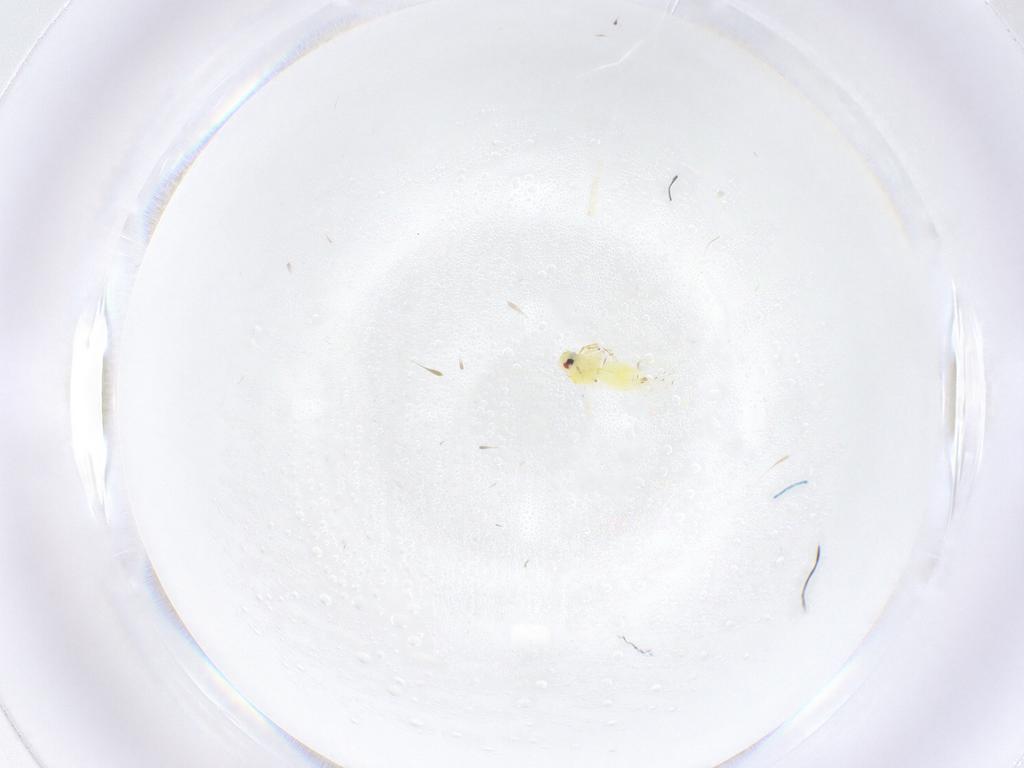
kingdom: Animalia
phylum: Arthropoda
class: Insecta
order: Hemiptera
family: Aleyrodidae
